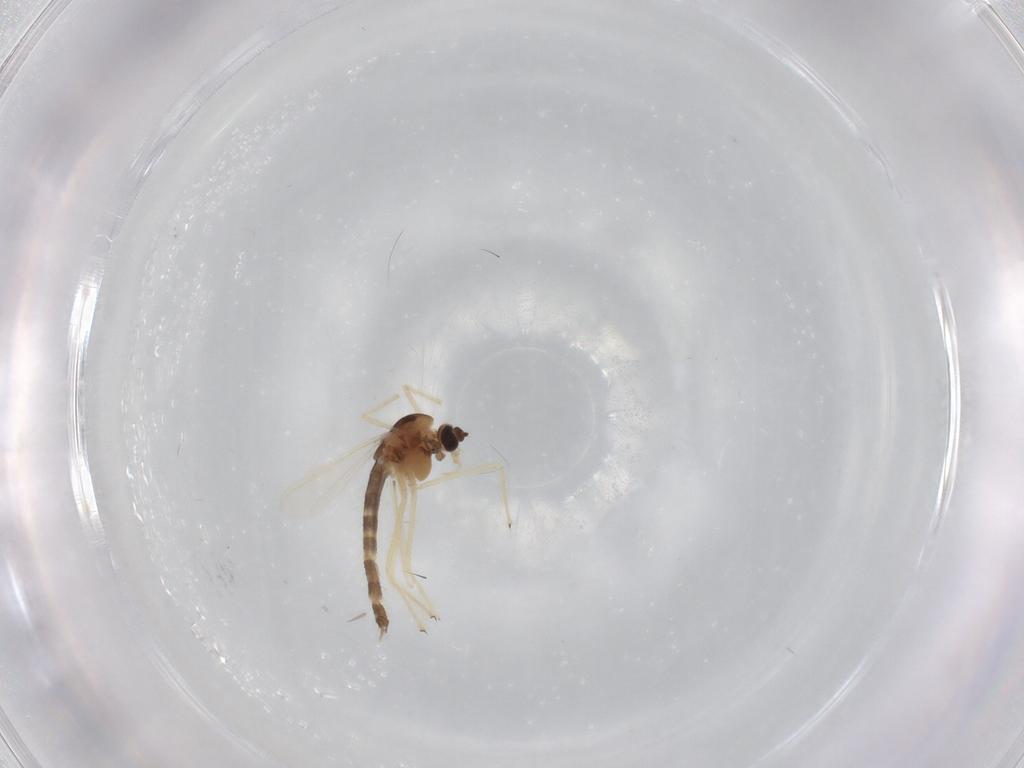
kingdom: Animalia
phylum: Arthropoda
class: Insecta
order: Diptera
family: Chironomidae
